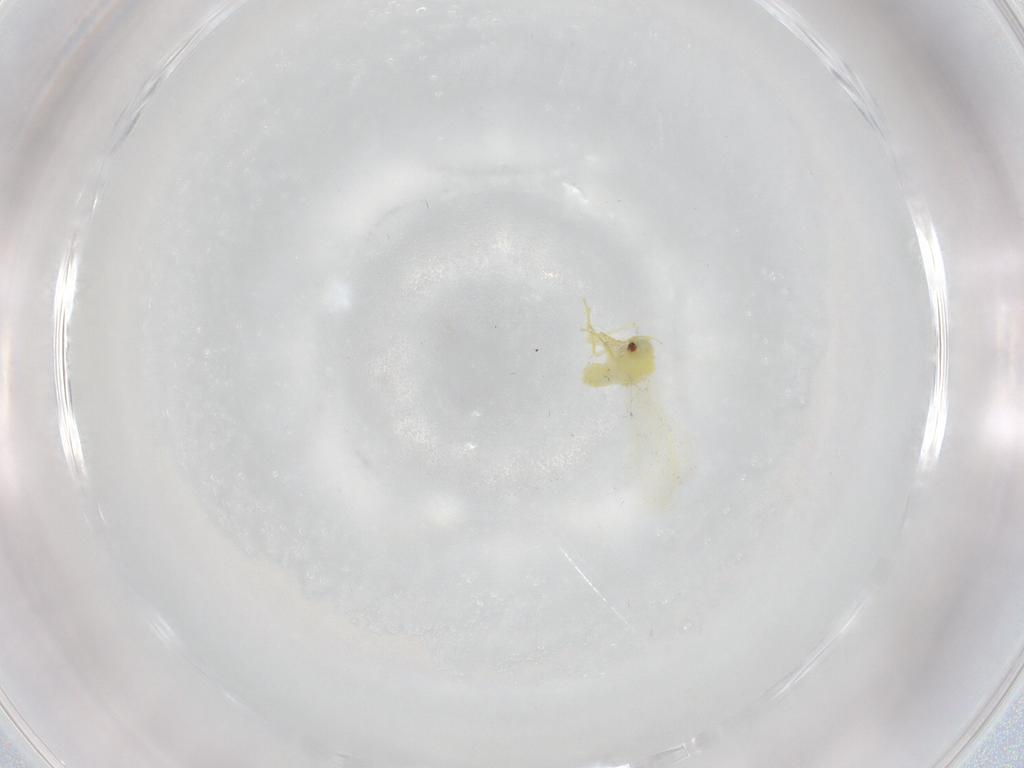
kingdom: Animalia
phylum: Arthropoda
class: Insecta
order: Hemiptera
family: Aleyrodidae
